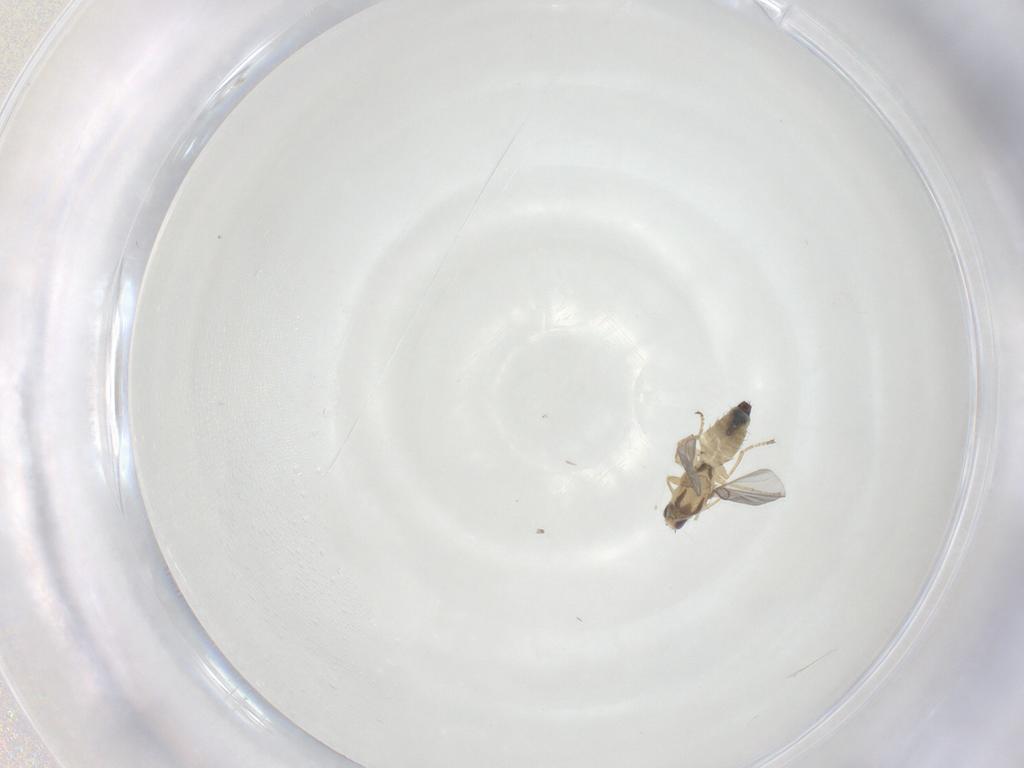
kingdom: Animalia
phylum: Arthropoda
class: Insecta
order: Diptera
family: Agromyzidae
